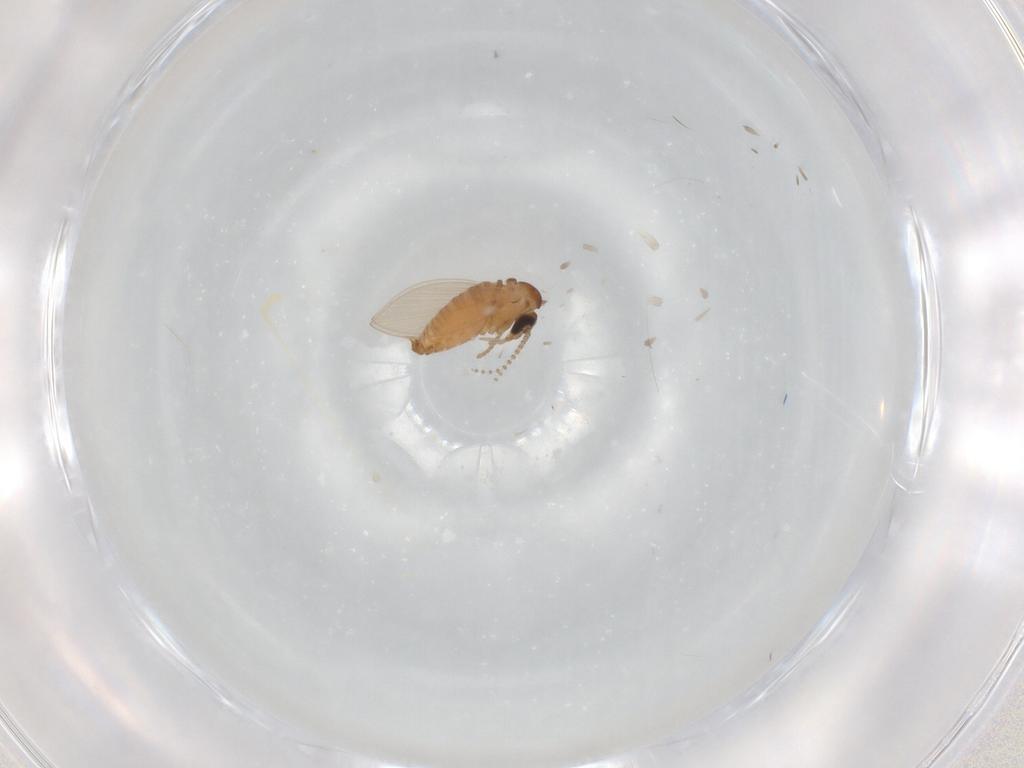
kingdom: Animalia
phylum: Arthropoda
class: Insecta
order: Diptera
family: Psychodidae
